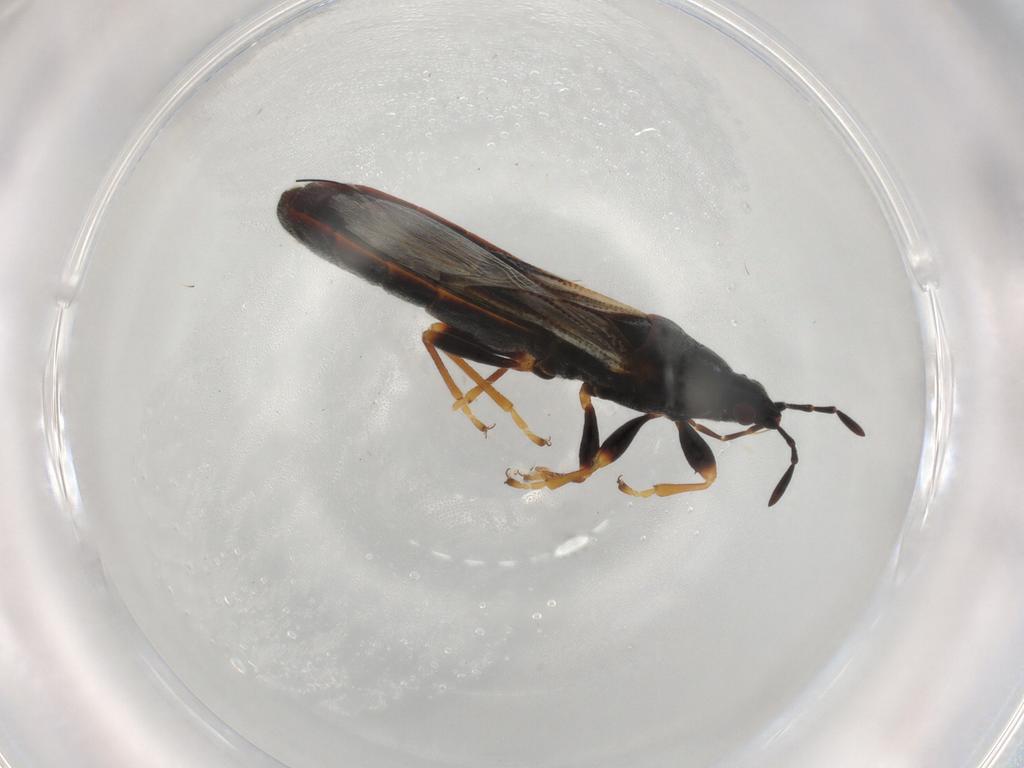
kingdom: Animalia
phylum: Arthropoda
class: Insecta
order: Hemiptera
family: Blissidae
